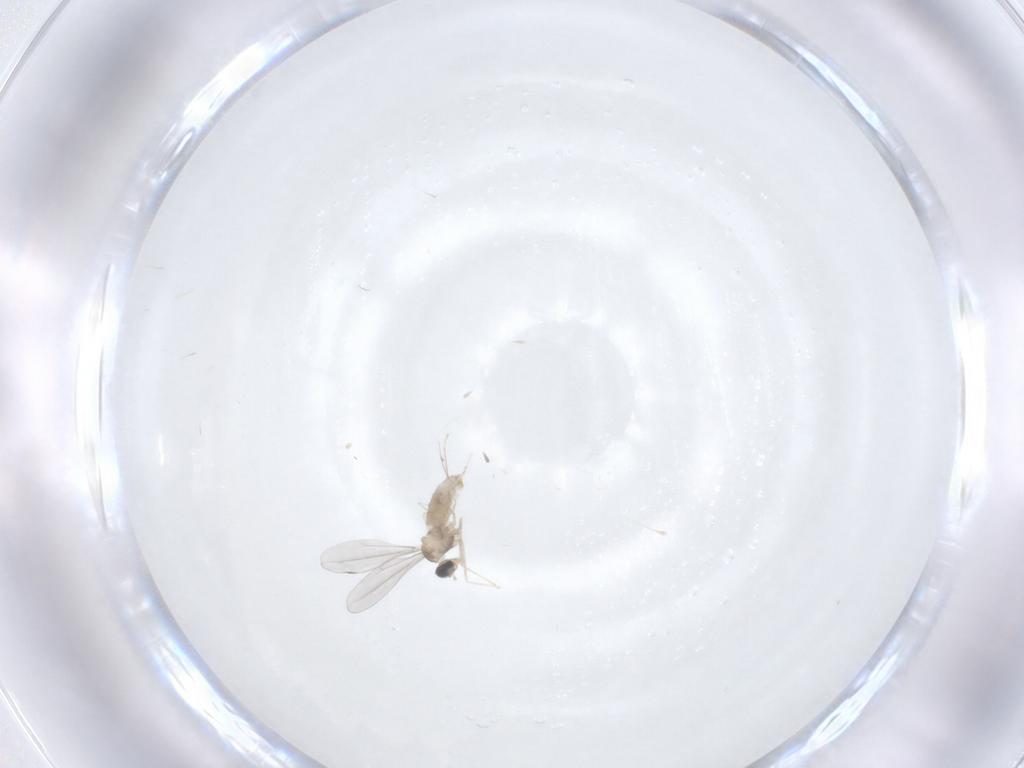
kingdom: Animalia
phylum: Arthropoda
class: Insecta
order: Diptera
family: Cecidomyiidae
